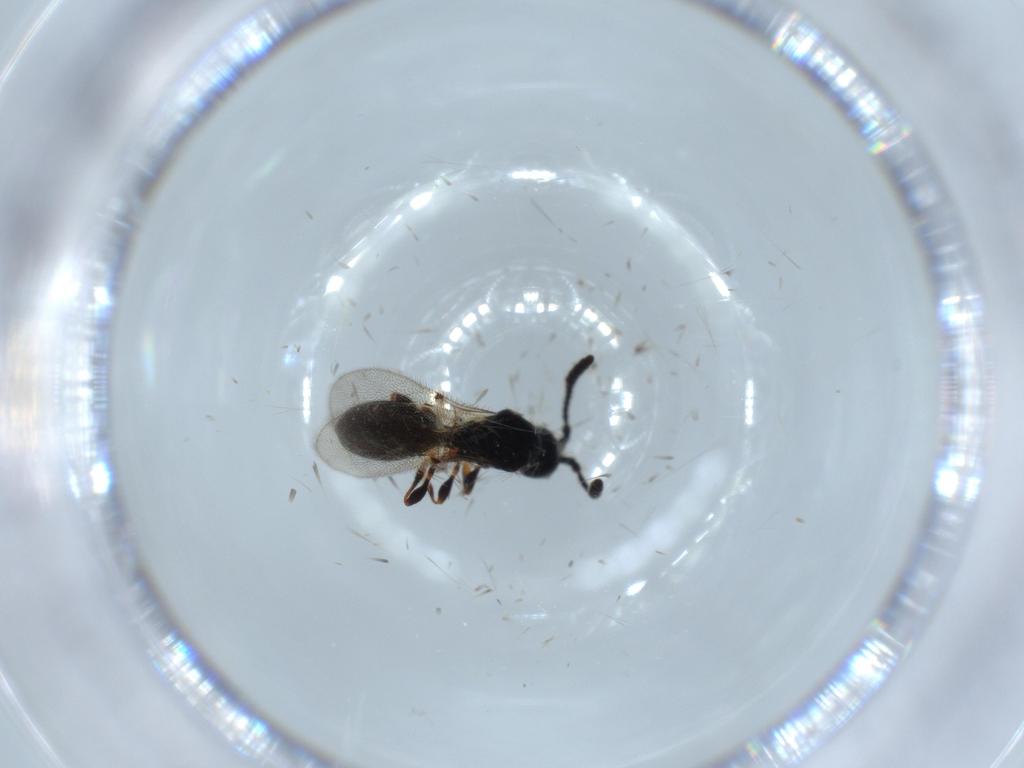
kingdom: Animalia
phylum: Arthropoda
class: Insecta
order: Hymenoptera
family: Diapriidae
